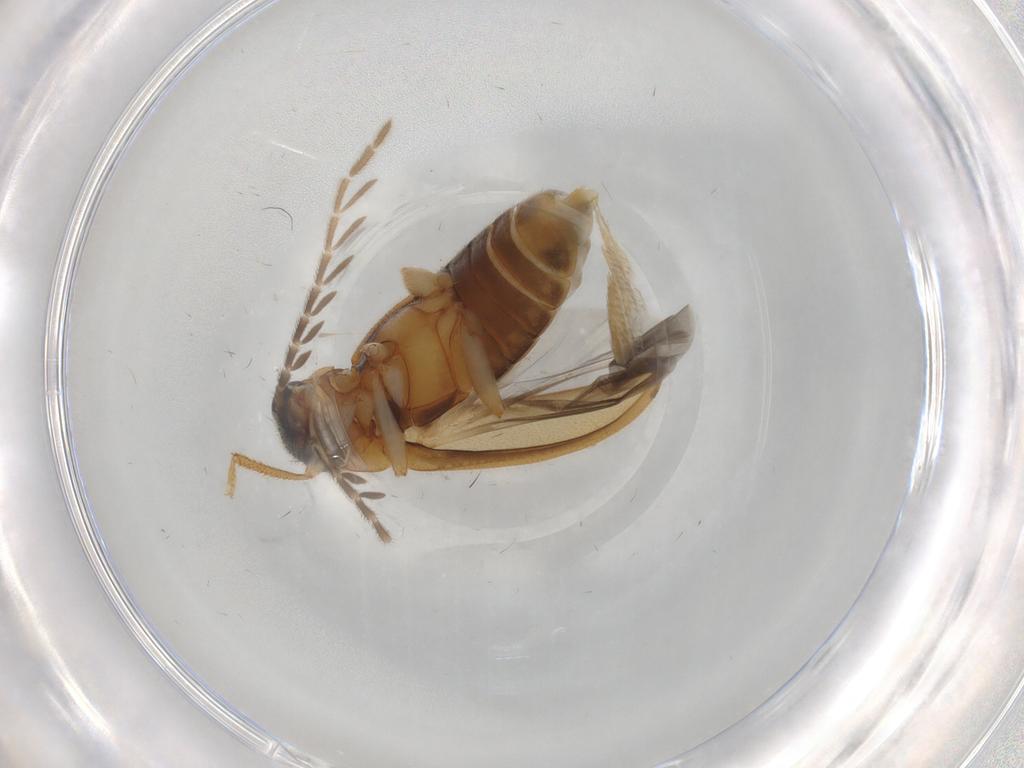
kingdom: Animalia
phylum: Arthropoda
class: Insecta
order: Coleoptera
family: Ptilodactylidae
